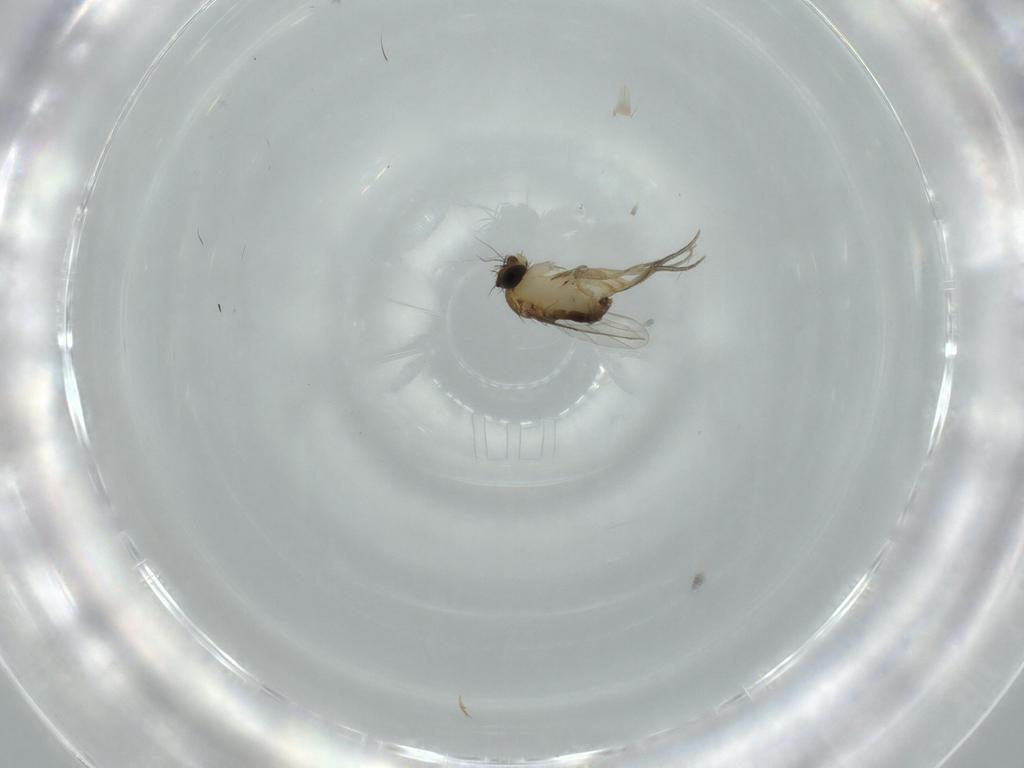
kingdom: Animalia
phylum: Arthropoda
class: Insecta
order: Diptera
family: Phoridae
